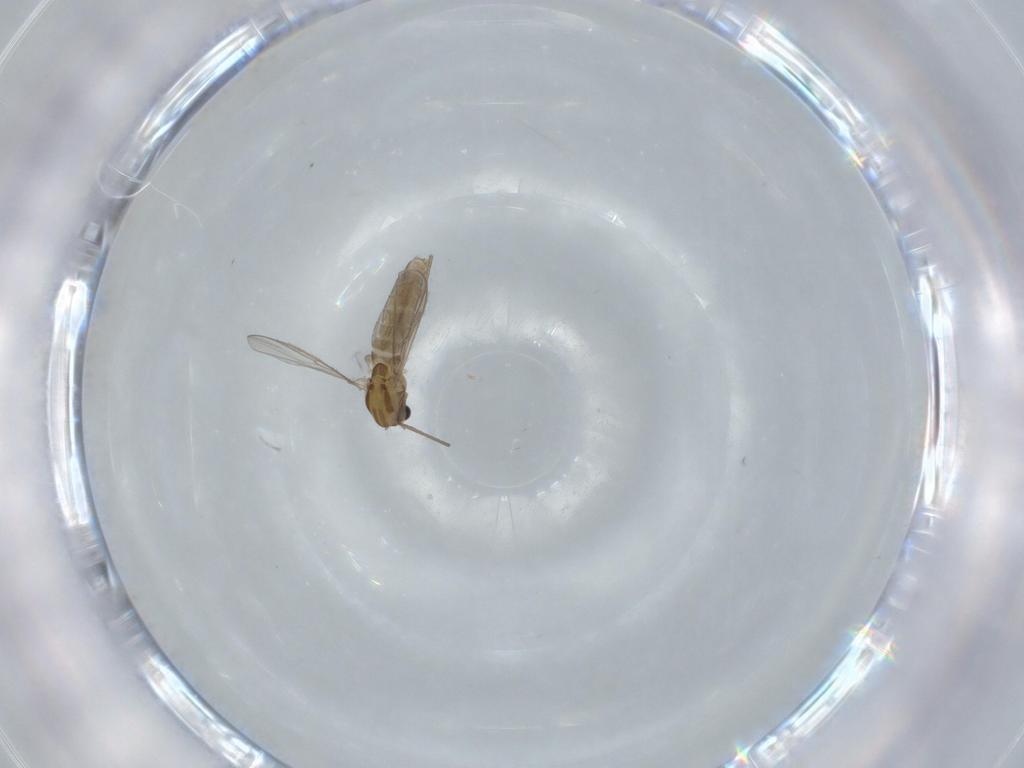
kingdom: Animalia
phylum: Arthropoda
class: Insecta
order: Diptera
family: Chironomidae
